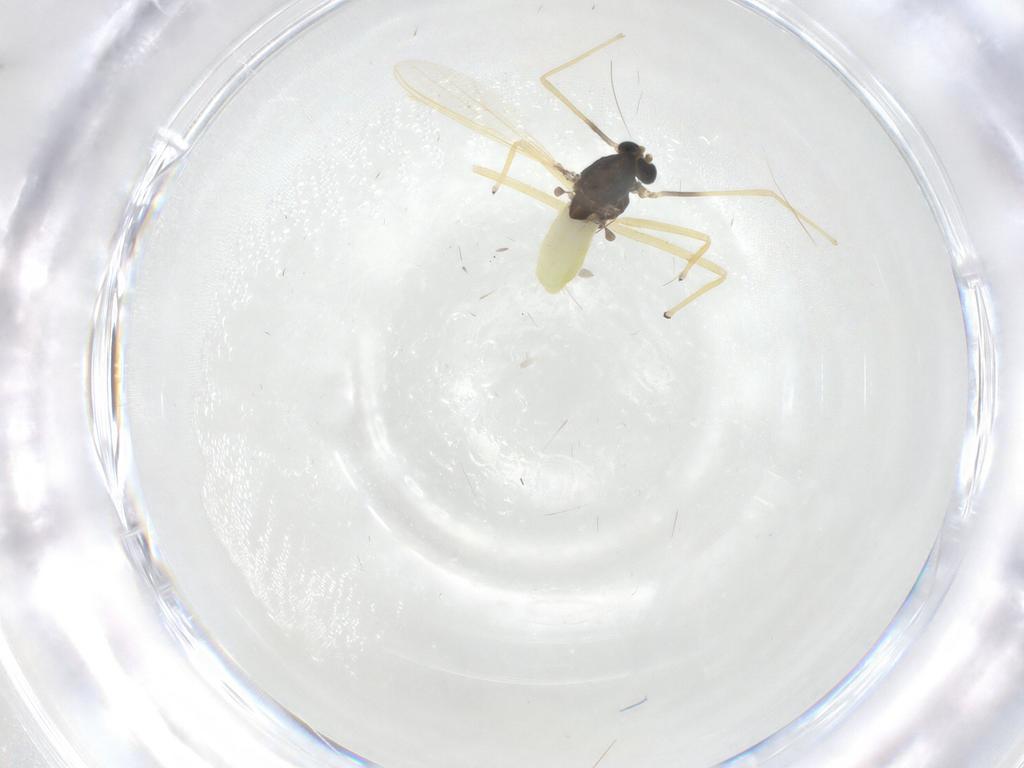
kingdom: Animalia
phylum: Arthropoda
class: Insecta
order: Diptera
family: Chironomidae
